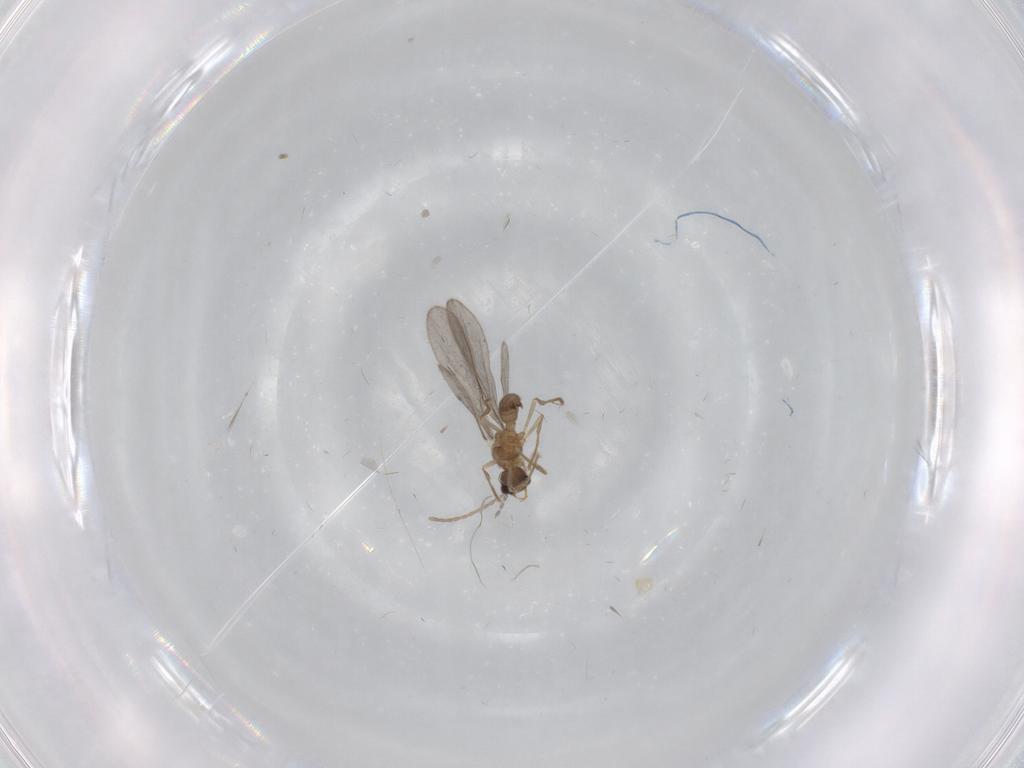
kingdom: Animalia
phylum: Arthropoda
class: Insecta
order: Hymenoptera
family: Formicidae
